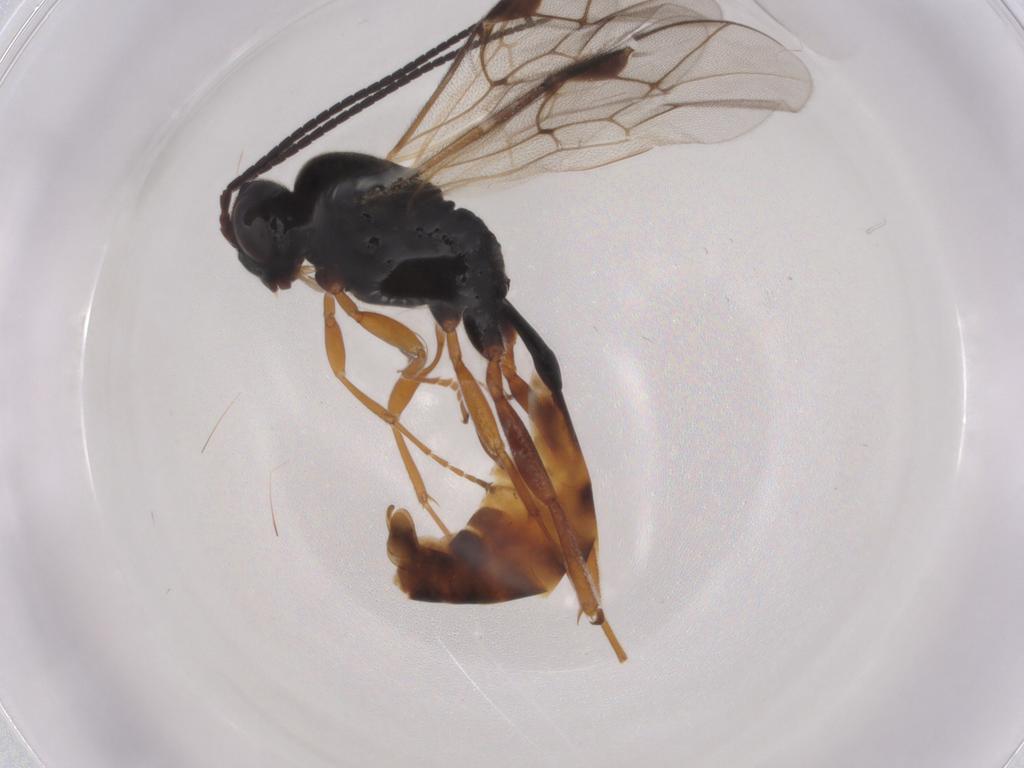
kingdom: Animalia
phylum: Arthropoda
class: Insecta
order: Hymenoptera
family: Ichneumonidae
